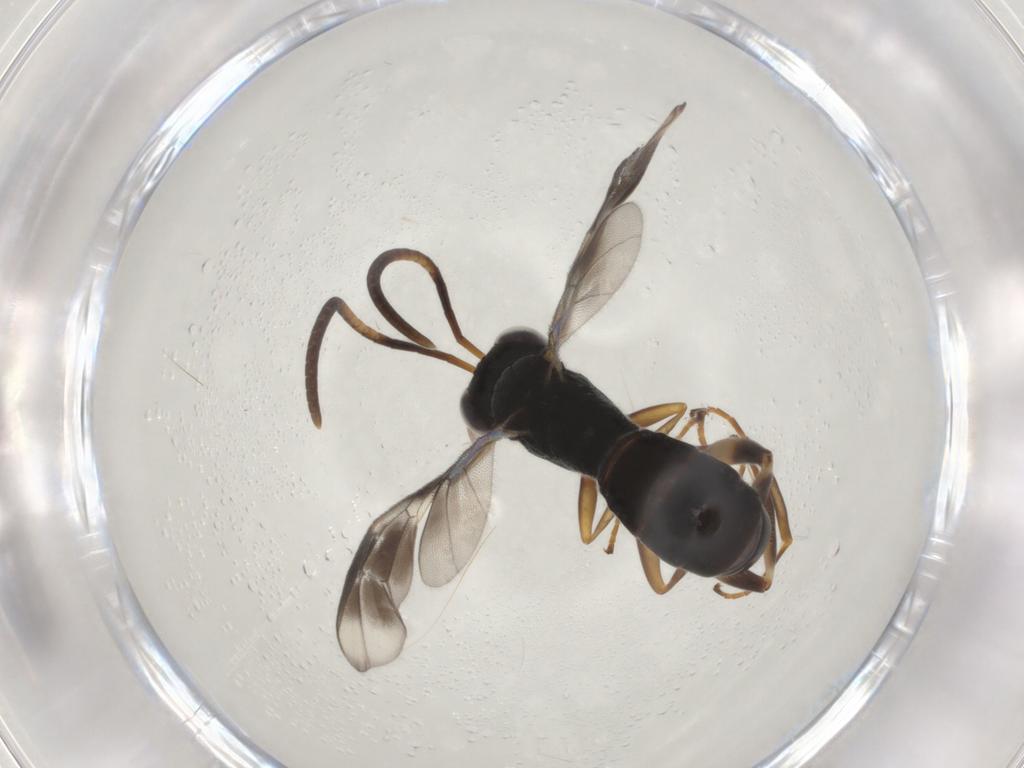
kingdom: Animalia
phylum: Arthropoda
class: Insecta
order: Hymenoptera
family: Ichneumonidae
